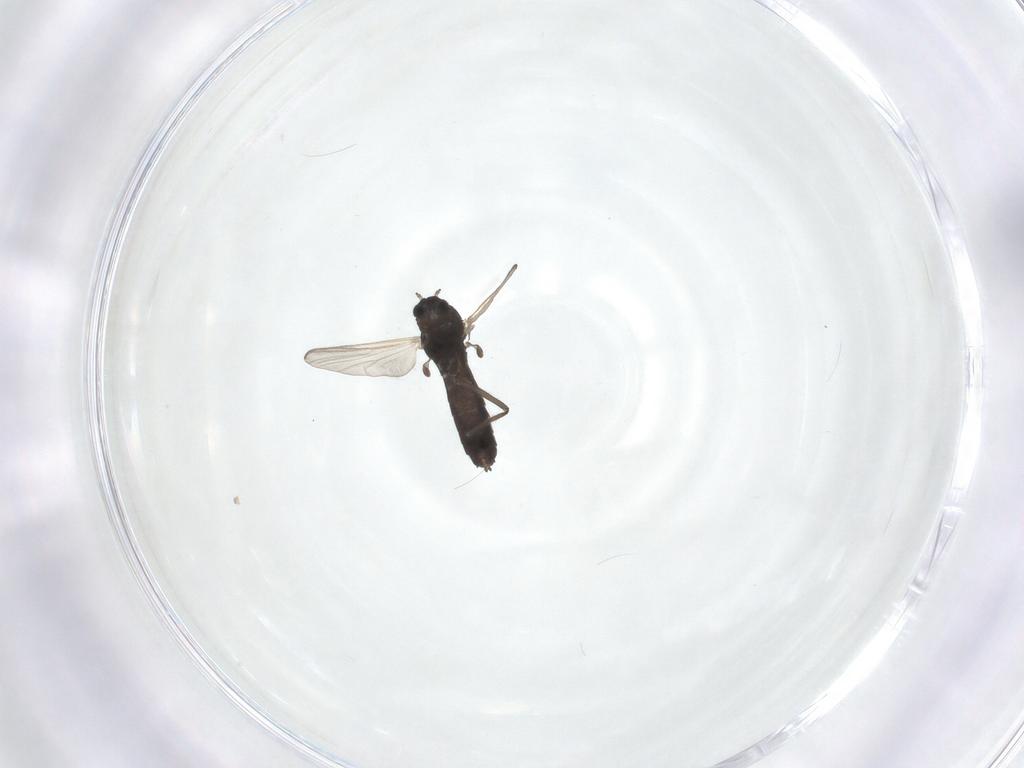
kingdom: Animalia
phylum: Arthropoda
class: Insecta
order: Diptera
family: Chironomidae
